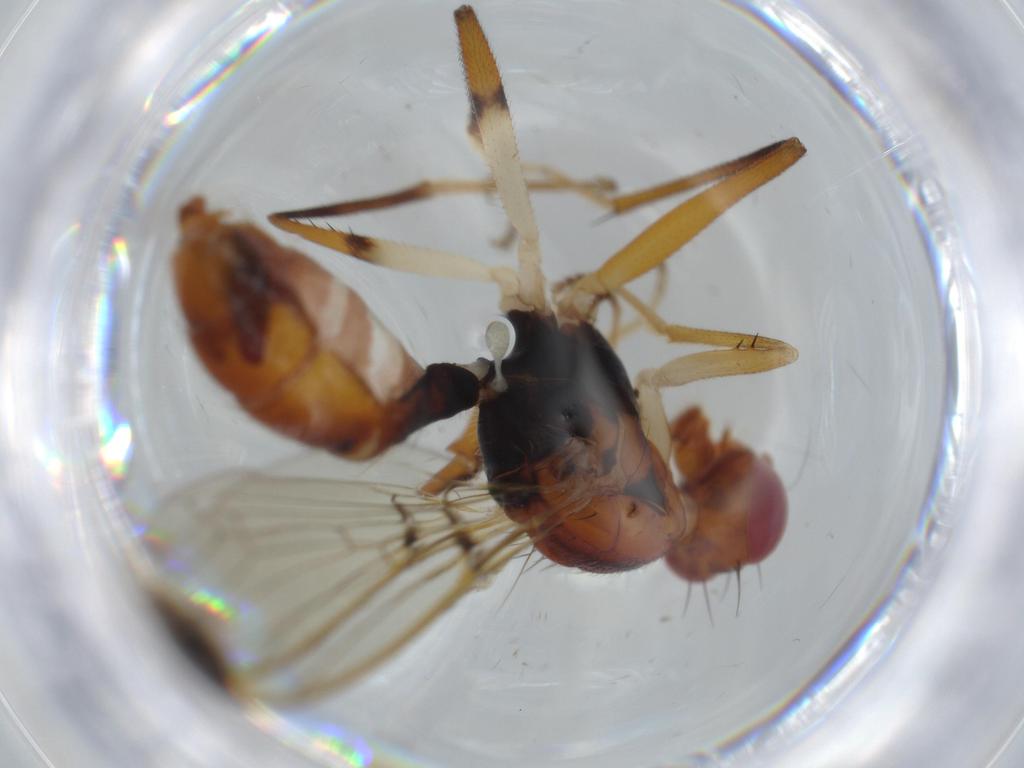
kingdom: Animalia
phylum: Arthropoda
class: Insecta
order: Diptera
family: Richardiidae
